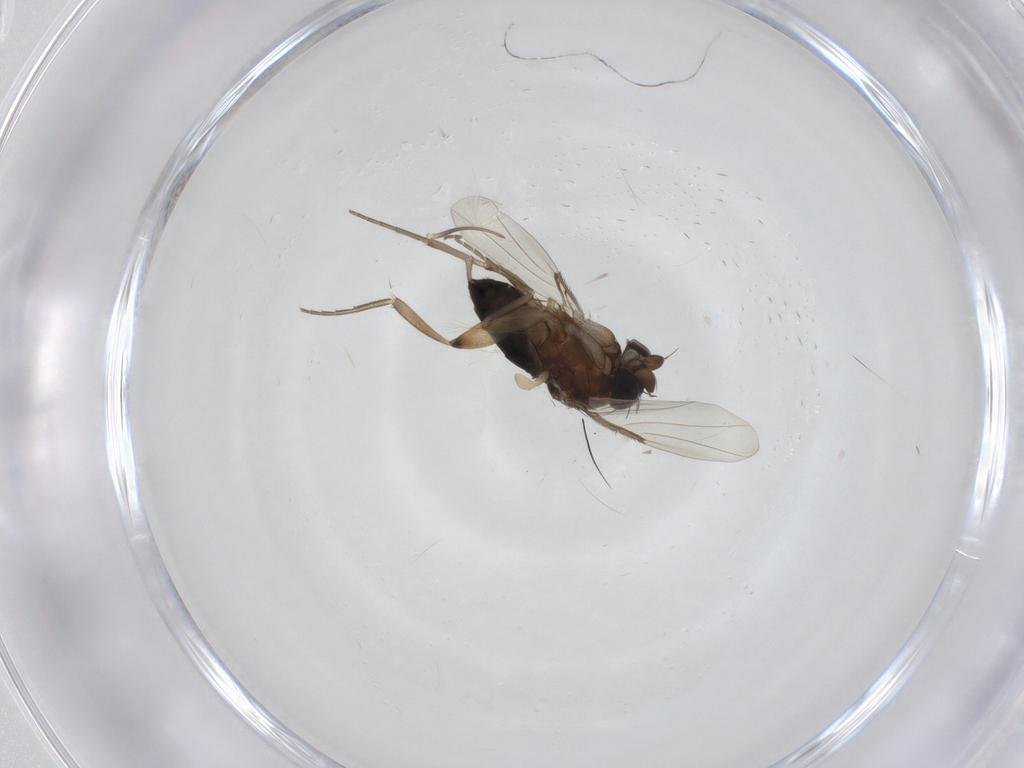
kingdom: Animalia
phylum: Arthropoda
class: Insecta
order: Diptera
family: Phoridae
